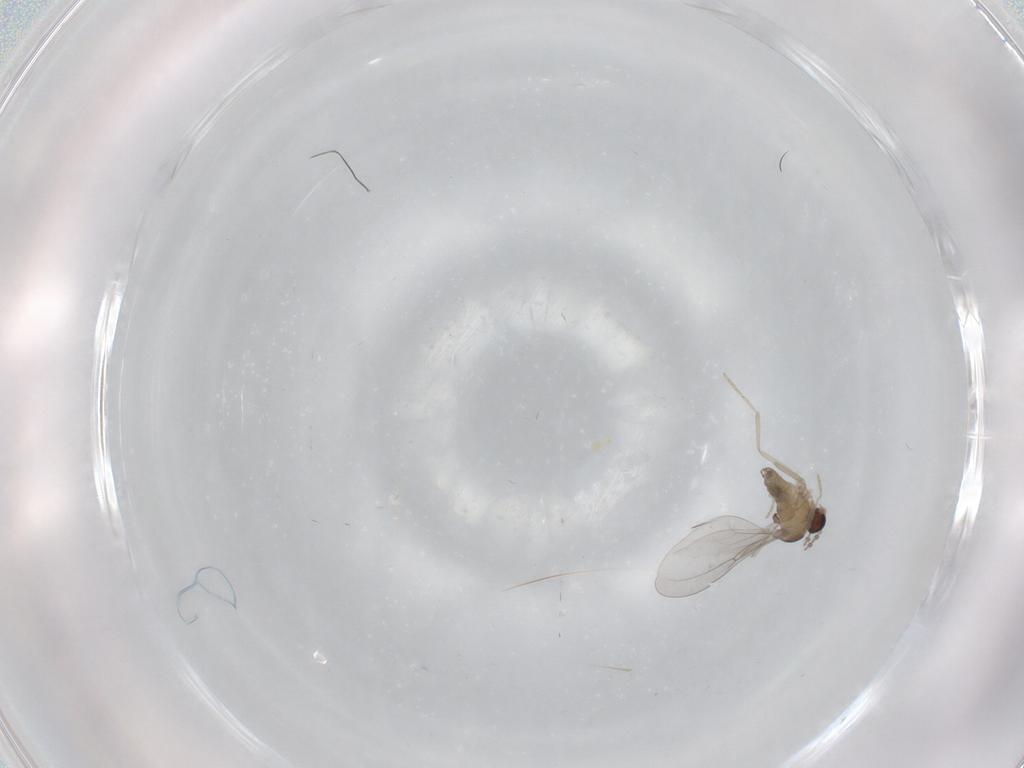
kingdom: Animalia
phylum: Arthropoda
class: Insecta
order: Diptera
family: Cecidomyiidae
